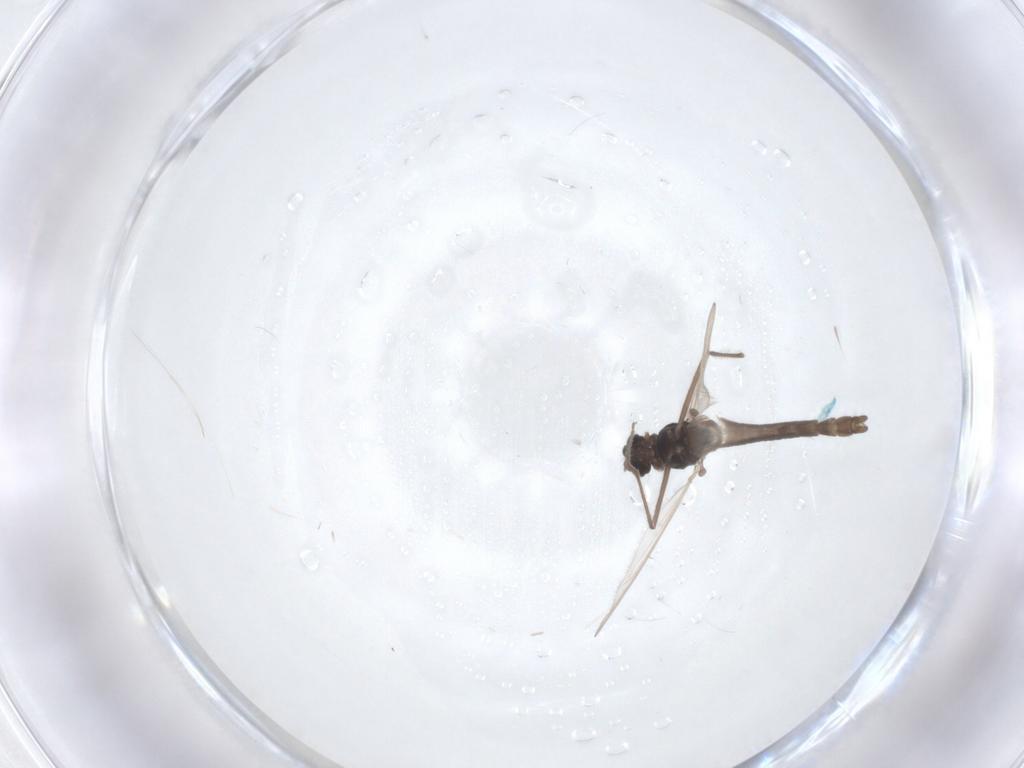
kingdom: Animalia
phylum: Arthropoda
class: Insecta
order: Diptera
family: Chironomidae
